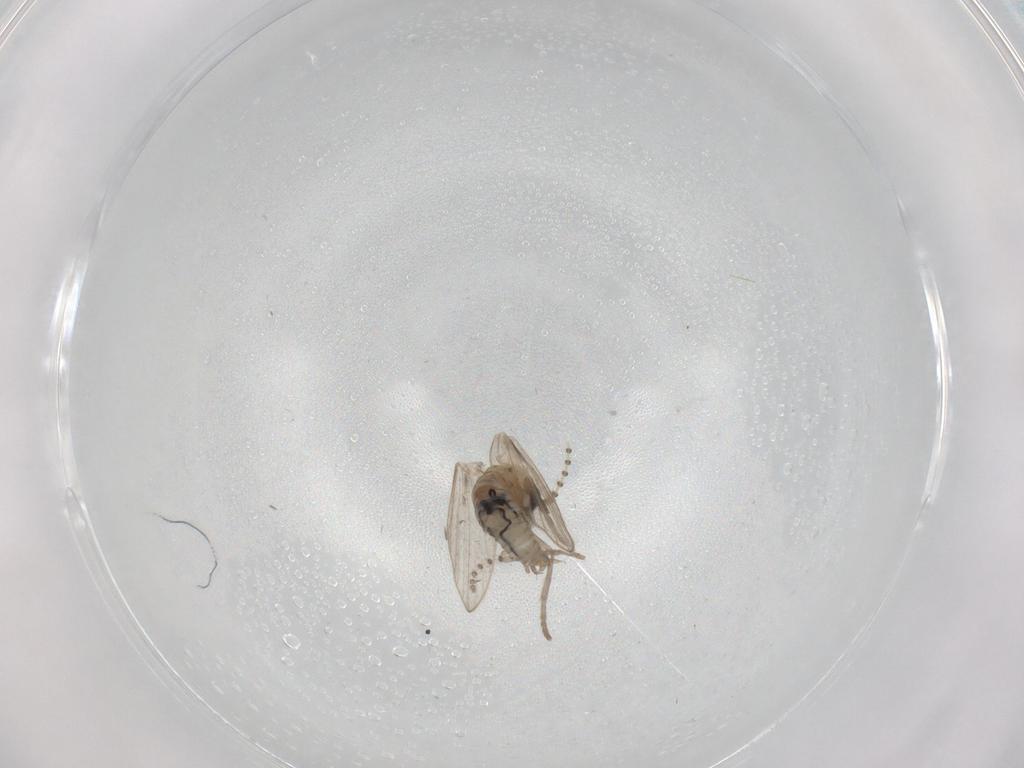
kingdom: Animalia
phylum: Arthropoda
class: Insecta
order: Diptera
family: Psychodidae
